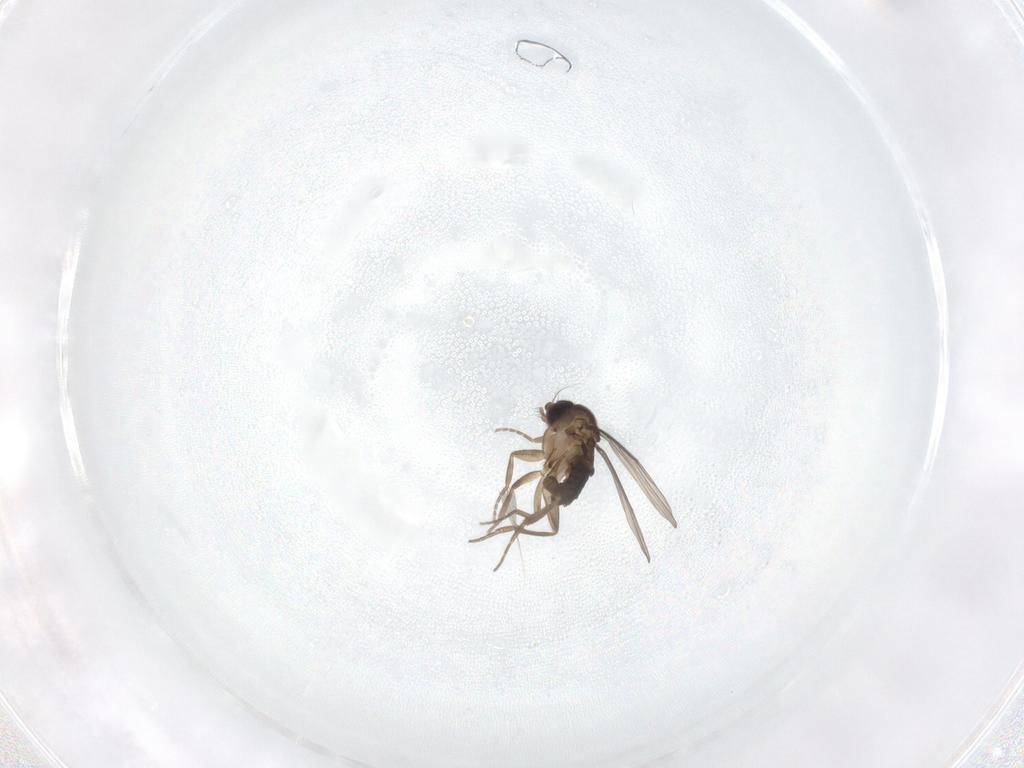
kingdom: Animalia
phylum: Arthropoda
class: Insecta
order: Diptera
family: Phoridae
